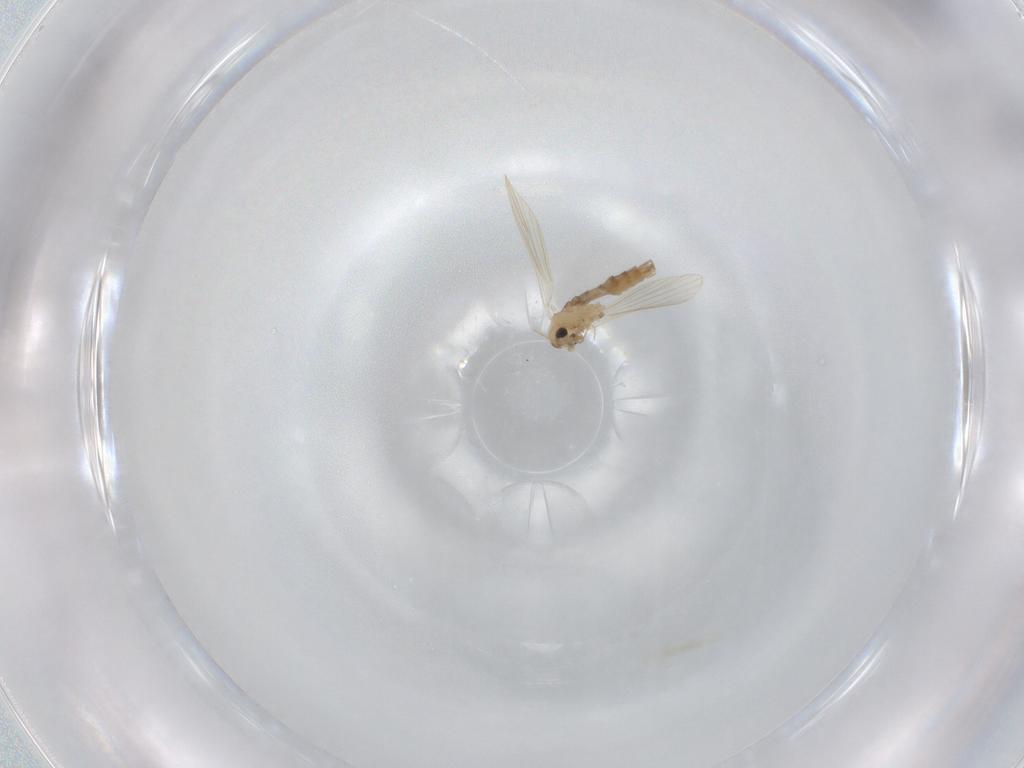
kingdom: Animalia
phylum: Arthropoda
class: Insecta
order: Diptera
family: Psychodidae
